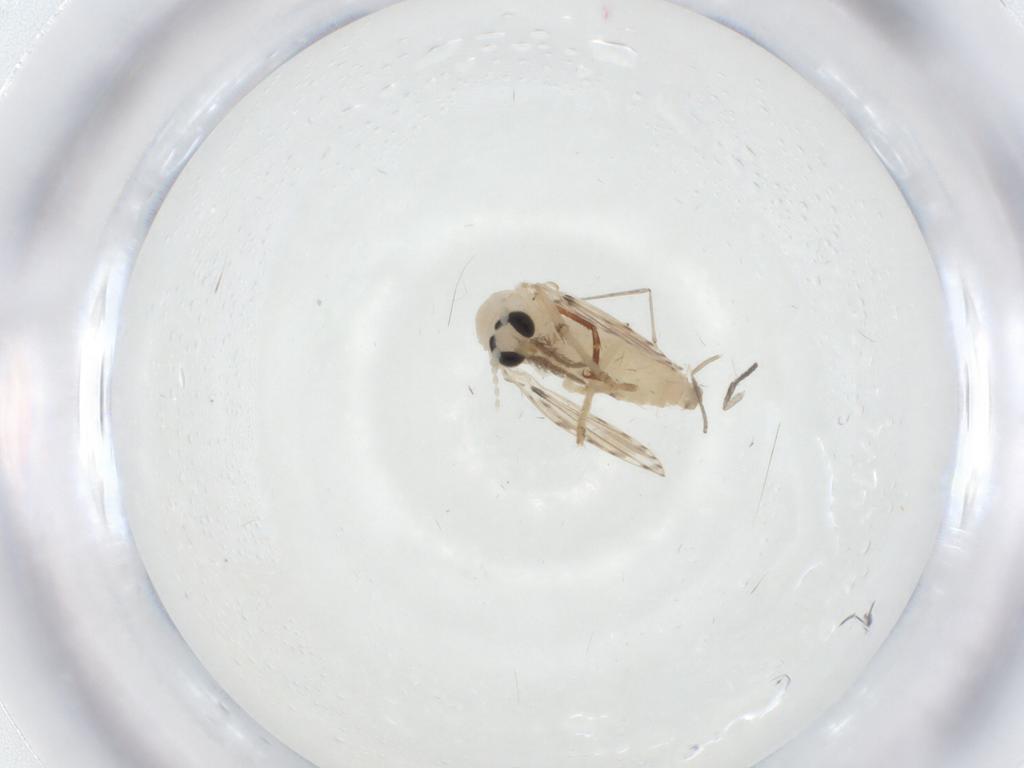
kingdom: Animalia
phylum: Arthropoda
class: Insecta
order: Diptera
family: Psychodidae
